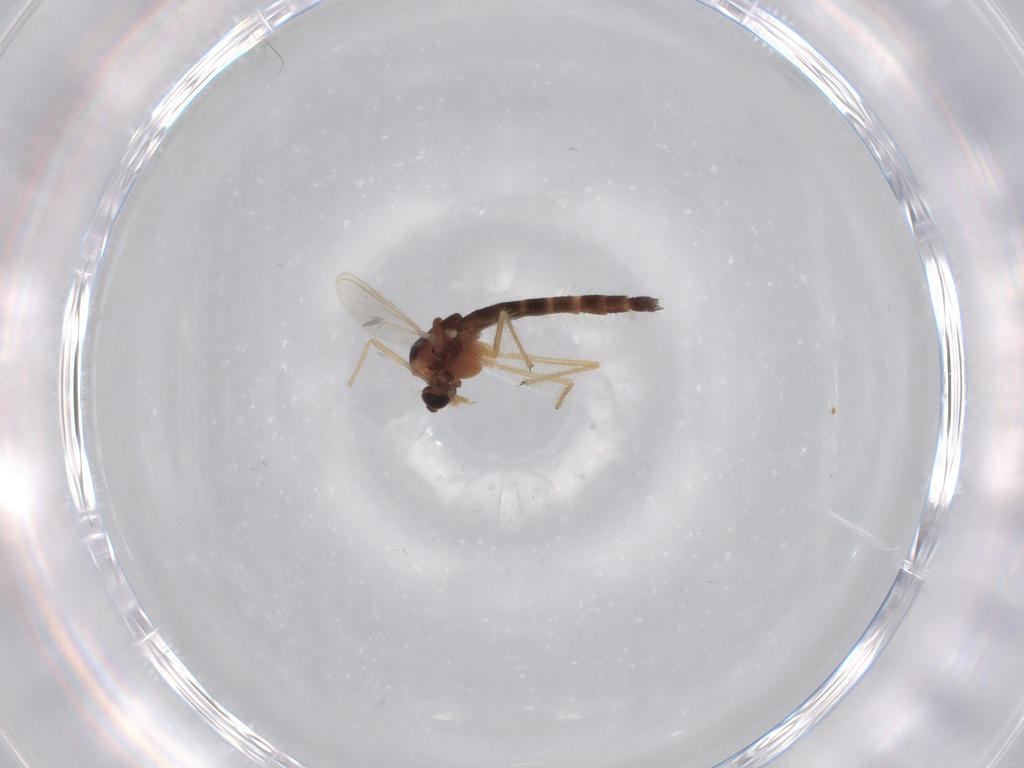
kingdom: Animalia
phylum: Arthropoda
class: Insecta
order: Diptera
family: Chironomidae
